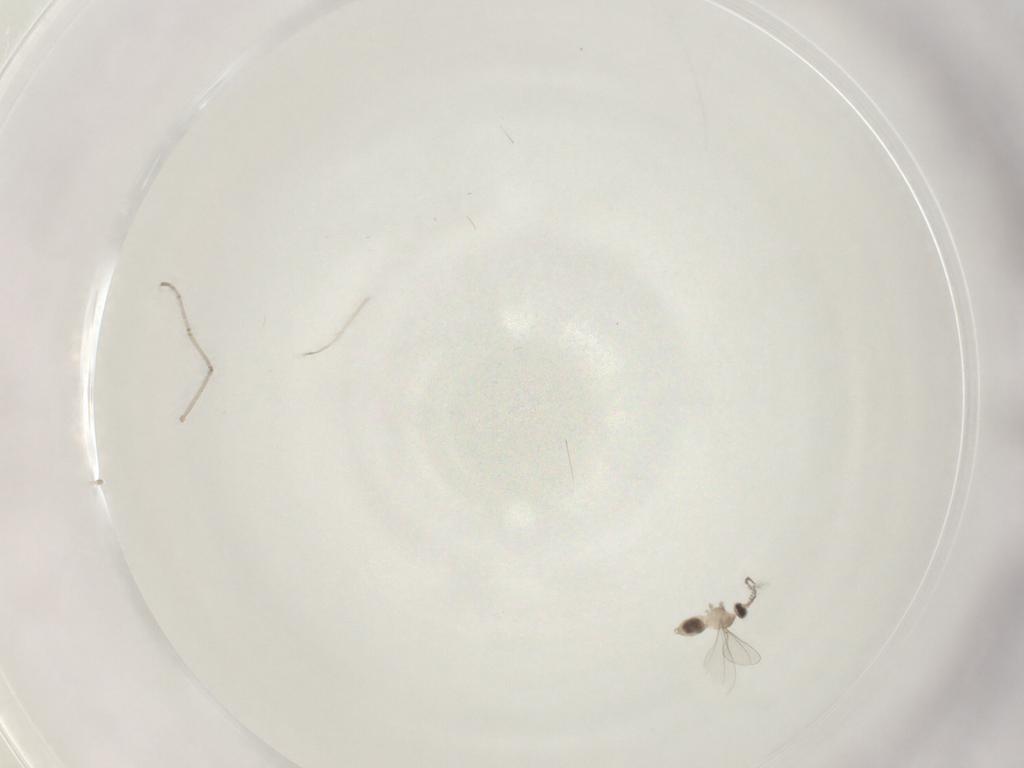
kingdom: Animalia
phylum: Arthropoda
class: Insecta
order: Diptera
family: Cecidomyiidae
